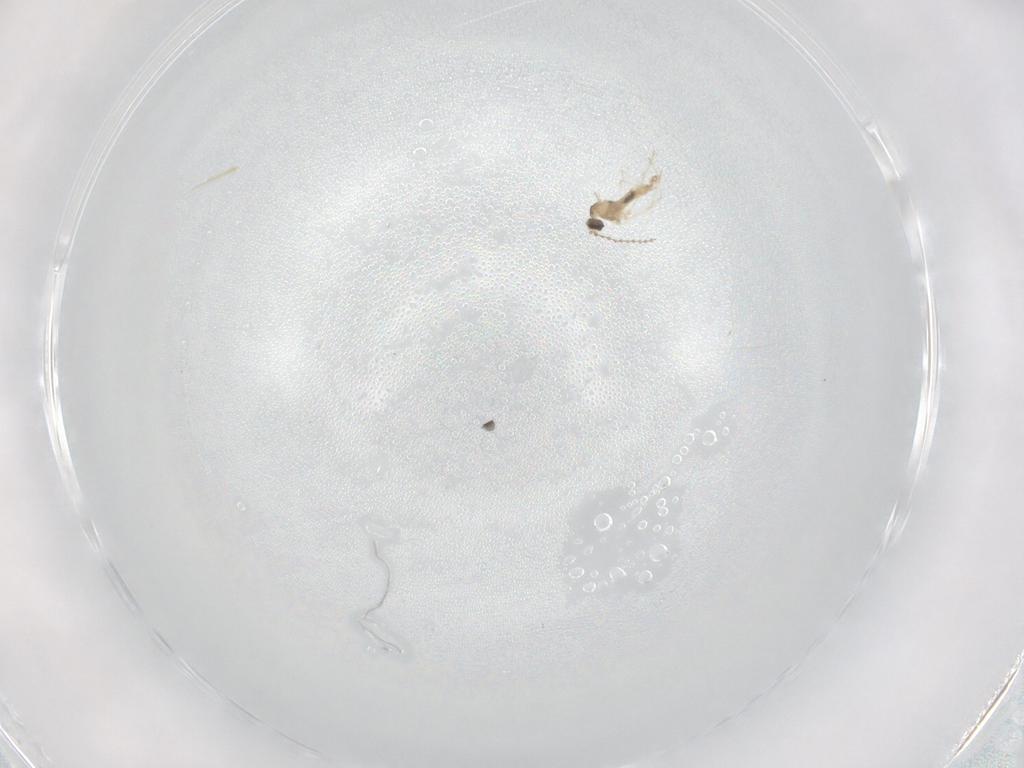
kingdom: Animalia
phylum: Arthropoda
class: Insecta
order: Diptera
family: Cecidomyiidae
